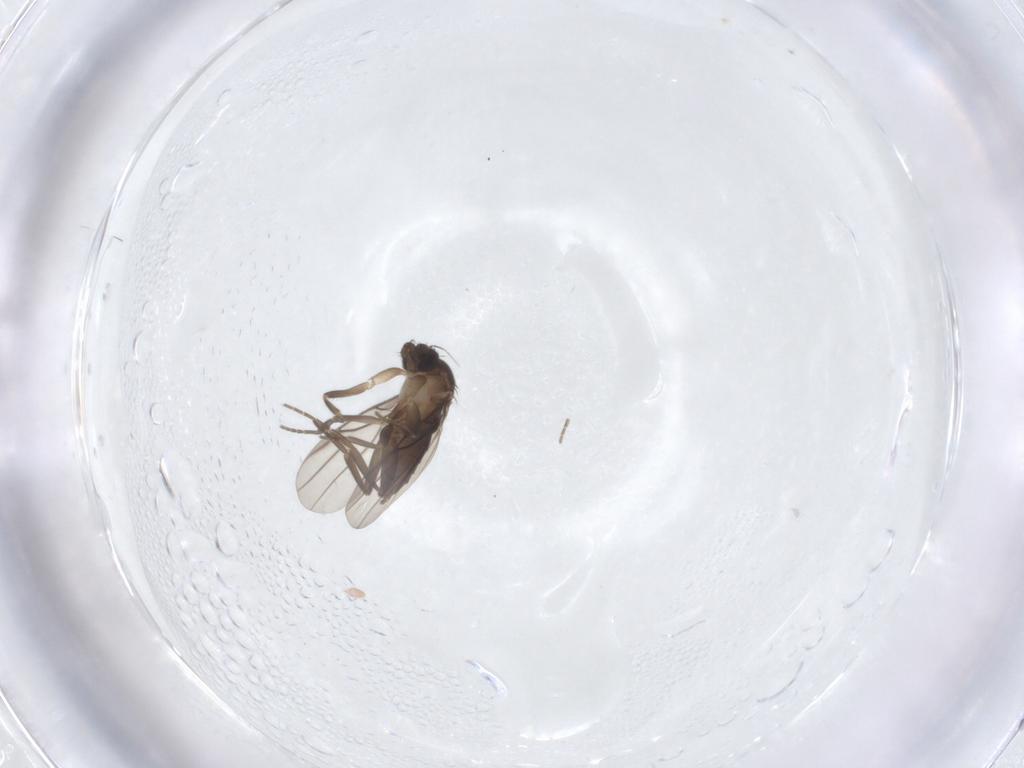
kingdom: Animalia
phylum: Arthropoda
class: Insecta
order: Diptera
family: Phoridae
